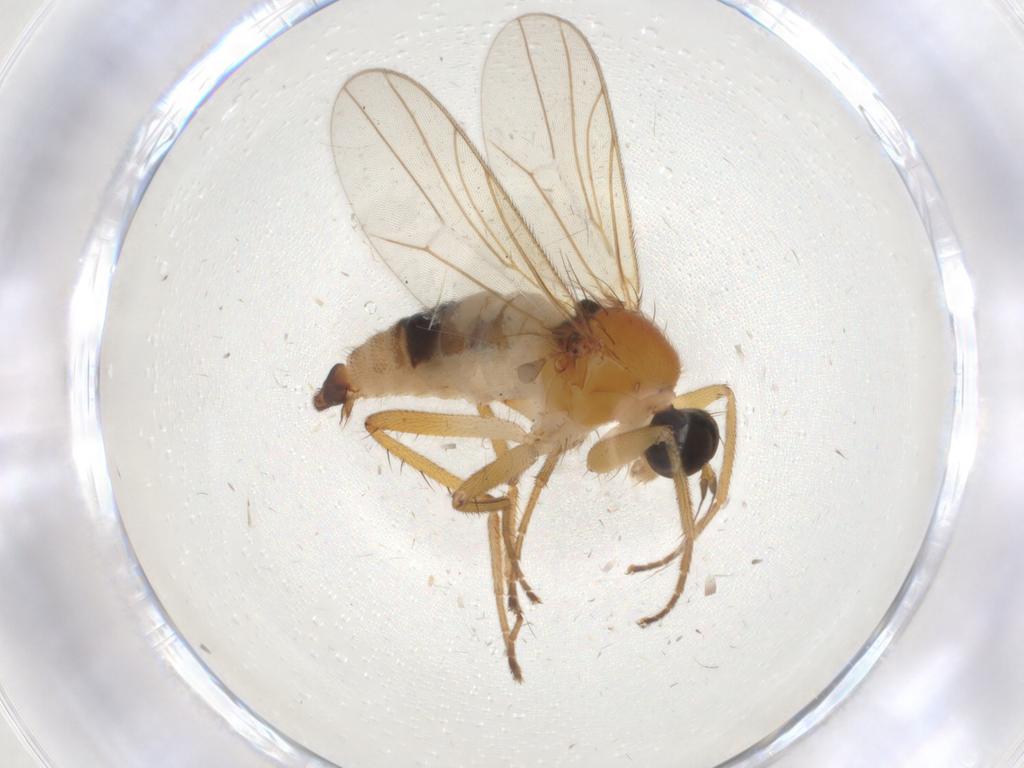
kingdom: Animalia
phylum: Arthropoda
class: Insecta
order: Diptera
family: Hybotidae
